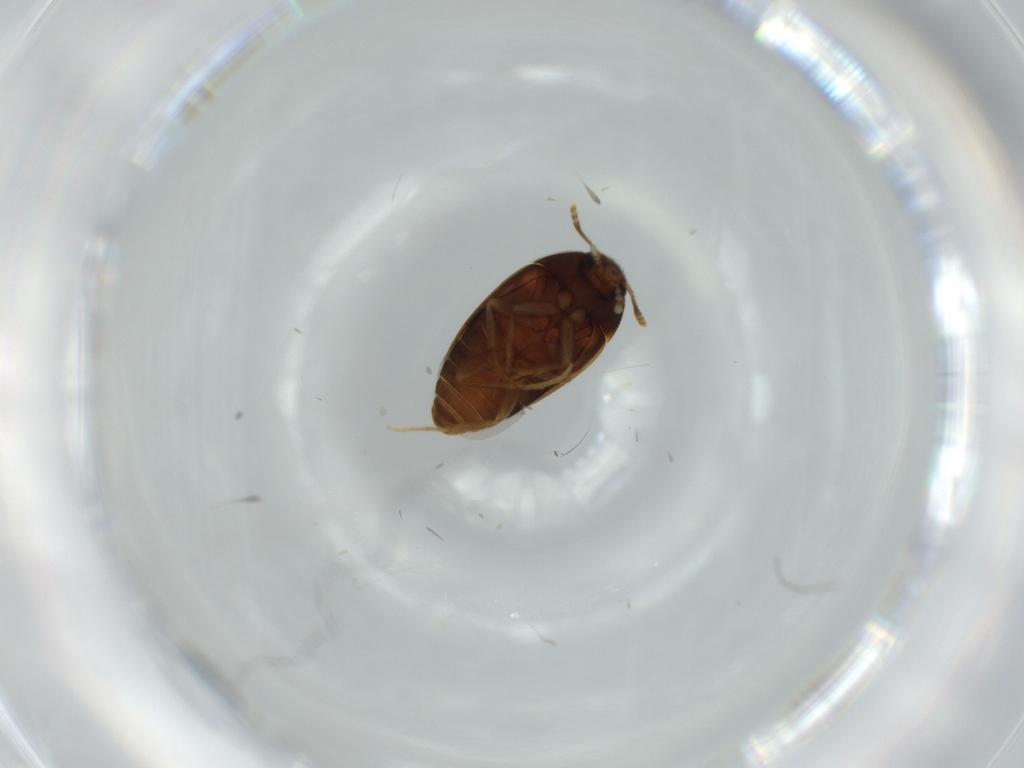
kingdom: Animalia
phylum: Arthropoda
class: Insecta
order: Coleoptera
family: Mycetophagidae
